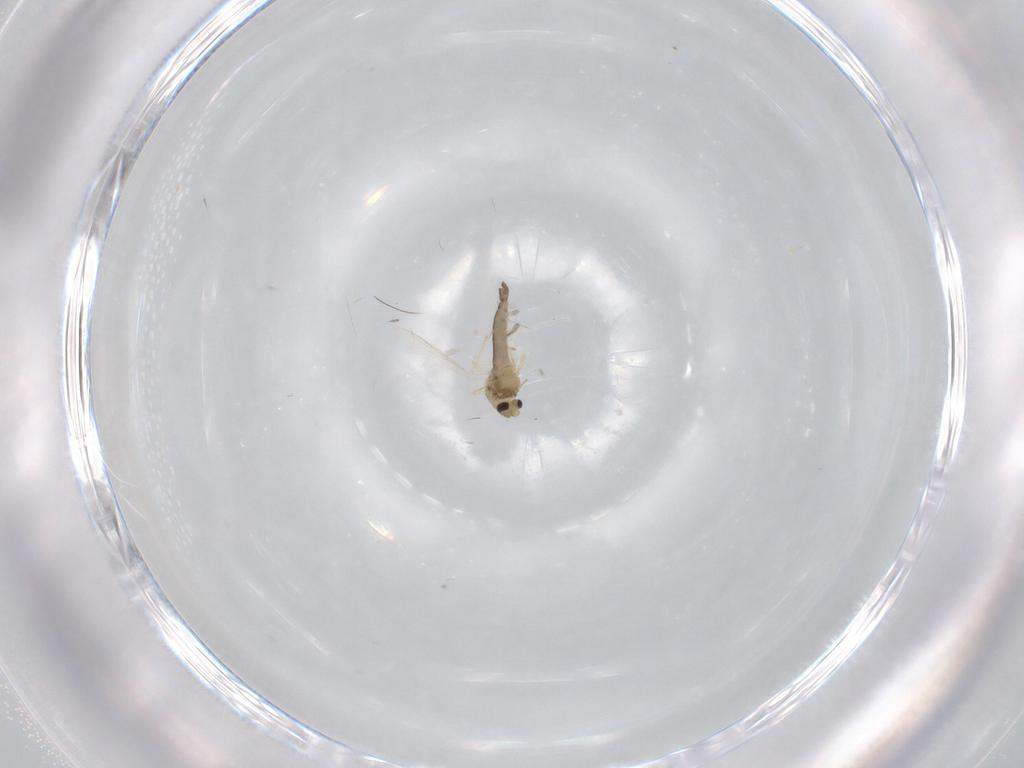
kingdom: Animalia
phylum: Arthropoda
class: Insecta
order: Diptera
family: Chironomidae
